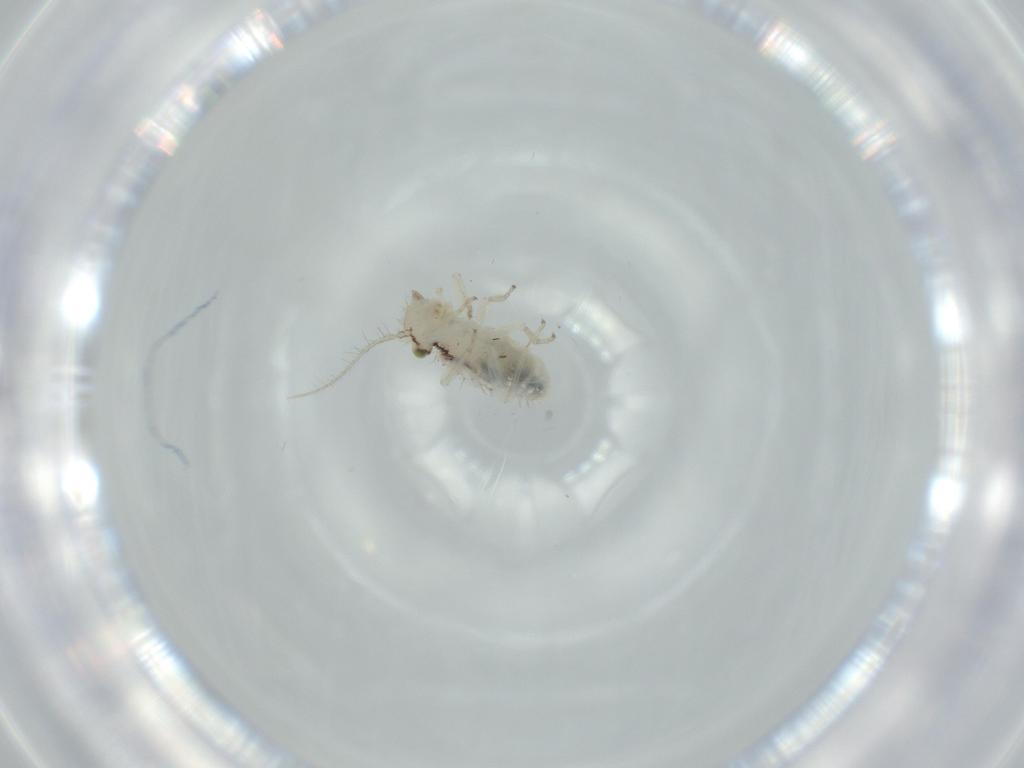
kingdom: Animalia
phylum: Arthropoda
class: Insecta
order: Psocodea
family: Pseudocaeciliidae
